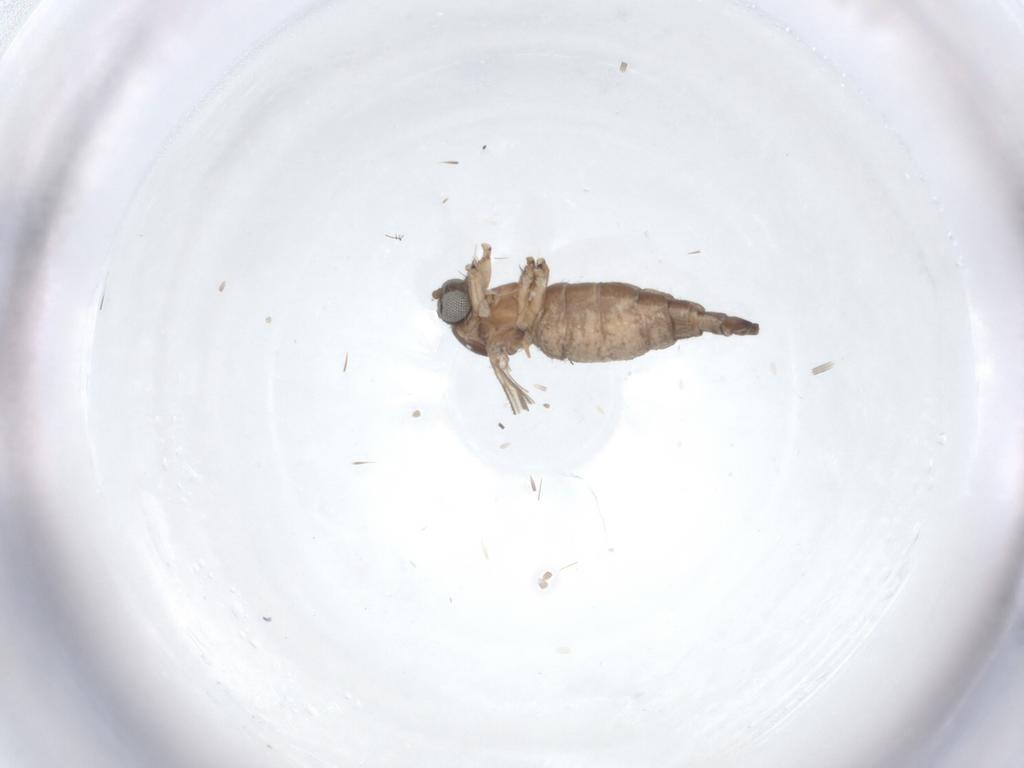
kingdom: Animalia
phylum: Arthropoda
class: Insecta
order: Diptera
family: Sciaridae
